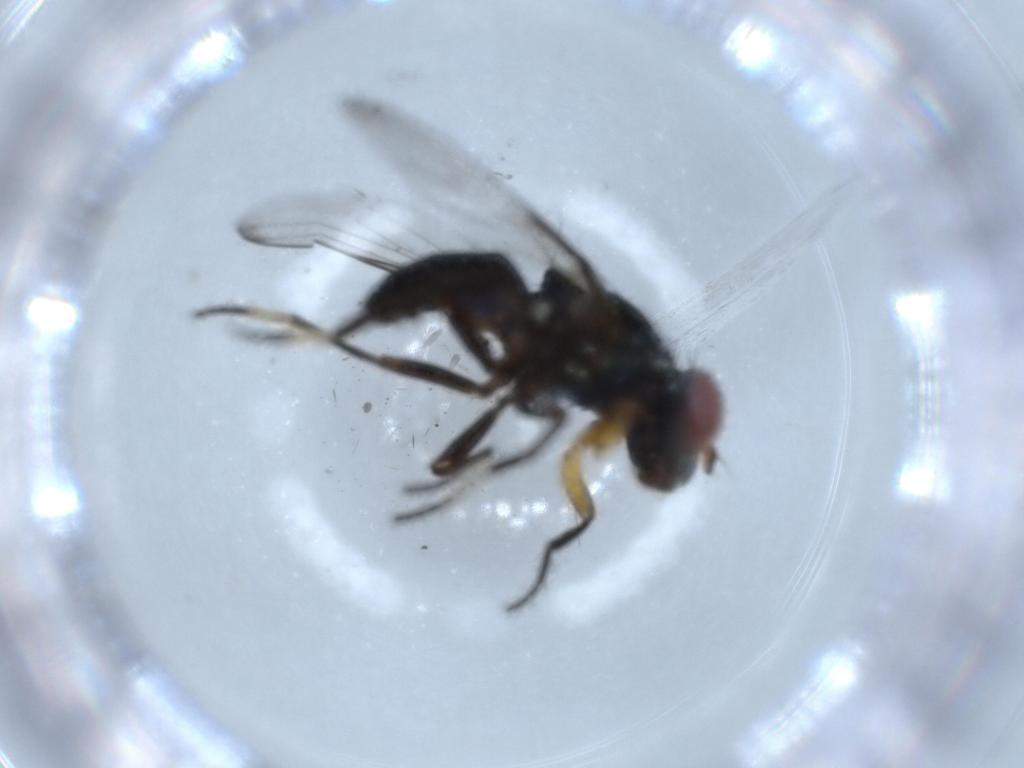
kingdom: Animalia
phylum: Arthropoda
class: Insecta
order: Diptera
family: Ulidiidae
